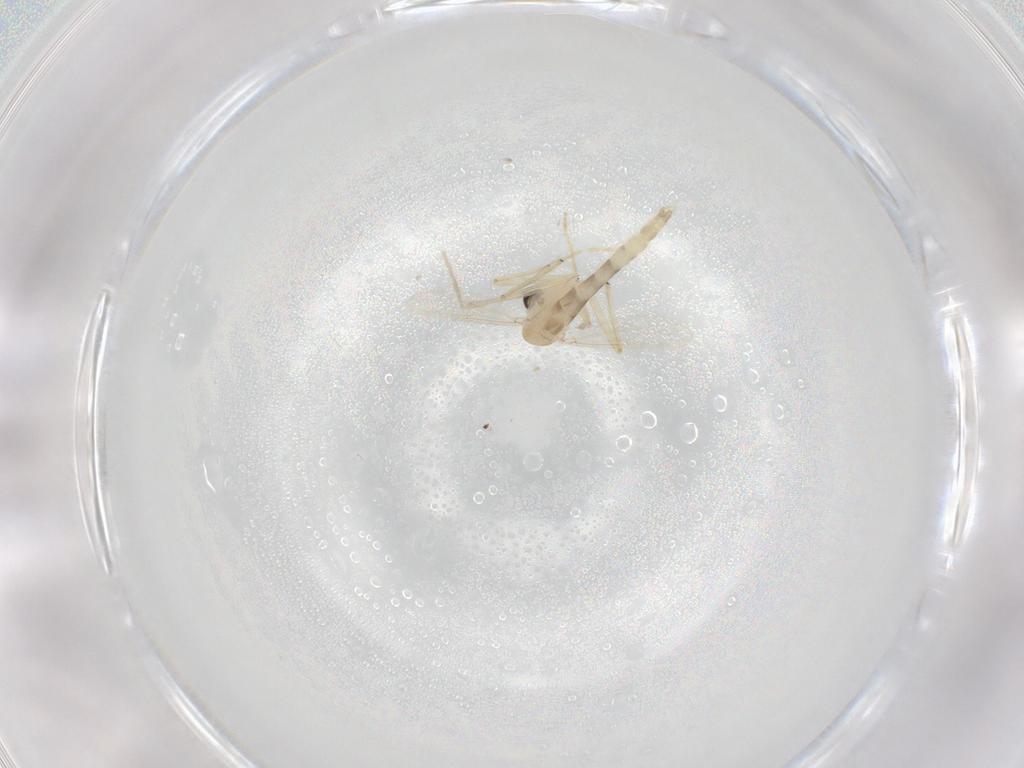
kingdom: Animalia
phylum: Arthropoda
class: Insecta
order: Diptera
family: Chironomidae
